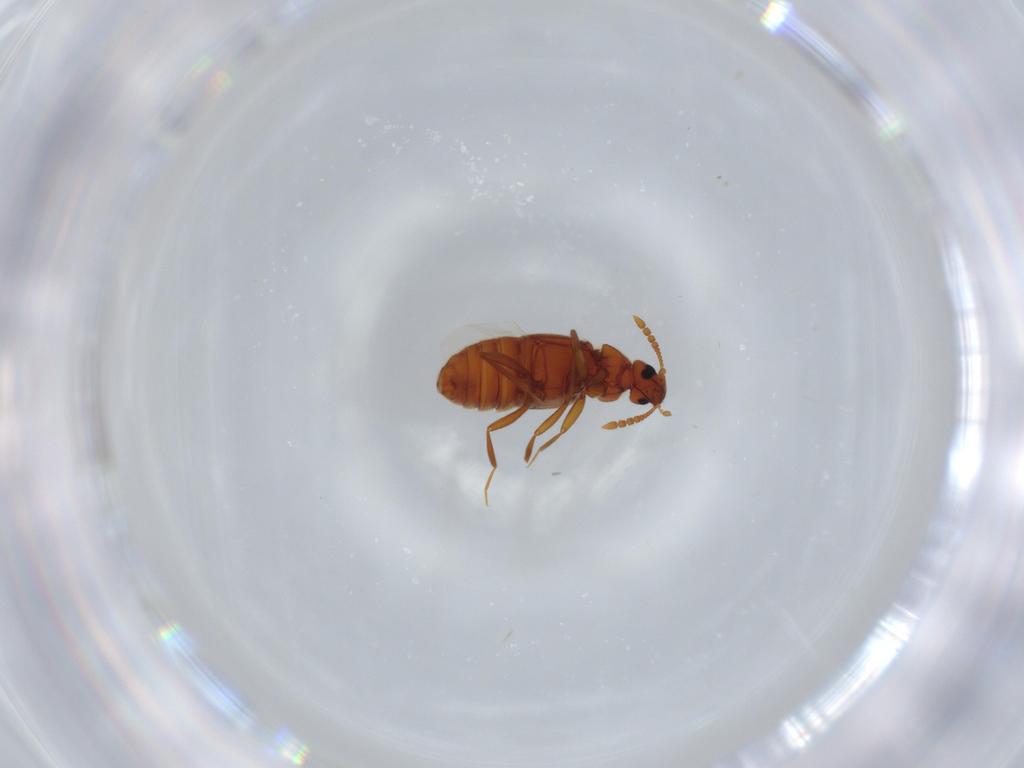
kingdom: Animalia
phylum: Arthropoda
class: Insecta
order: Coleoptera
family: Staphylinidae
